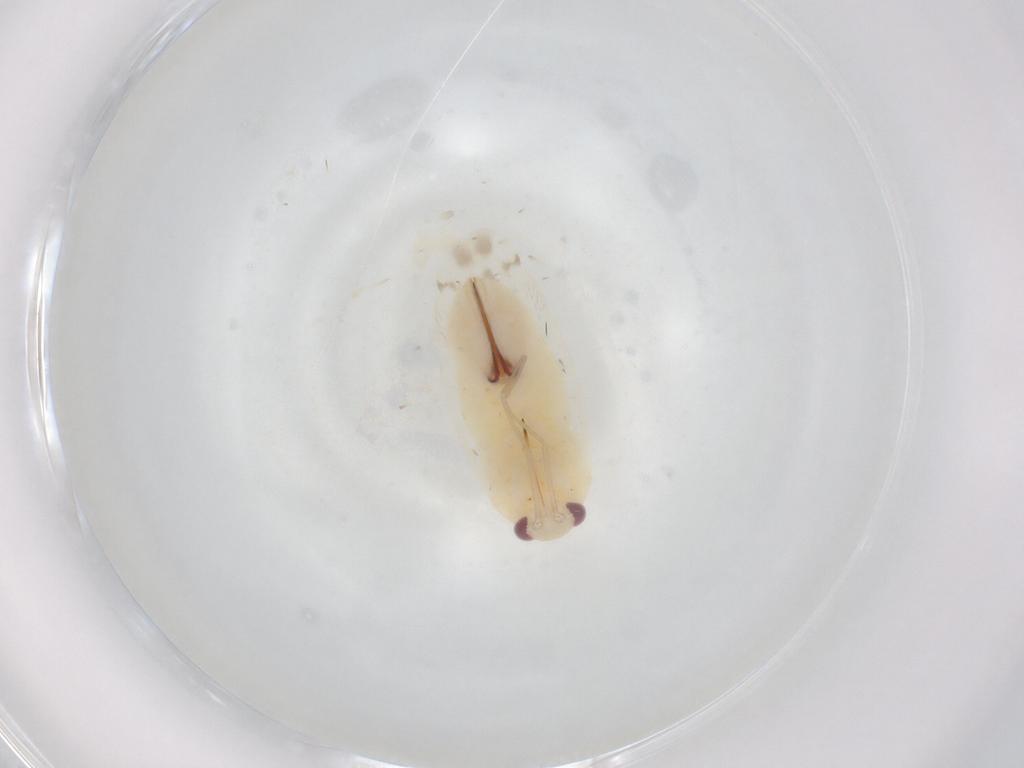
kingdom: Animalia
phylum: Arthropoda
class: Insecta
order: Hemiptera
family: Miridae
